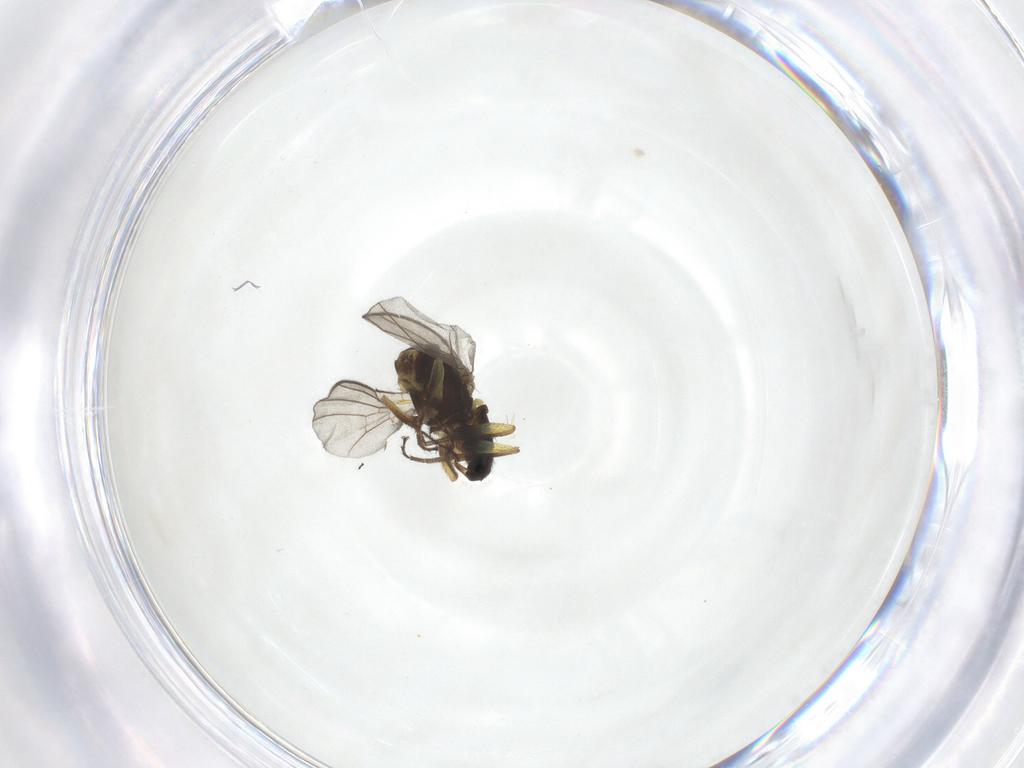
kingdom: Animalia
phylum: Arthropoda
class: Insecta
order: Diptera
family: Agromyzidae
